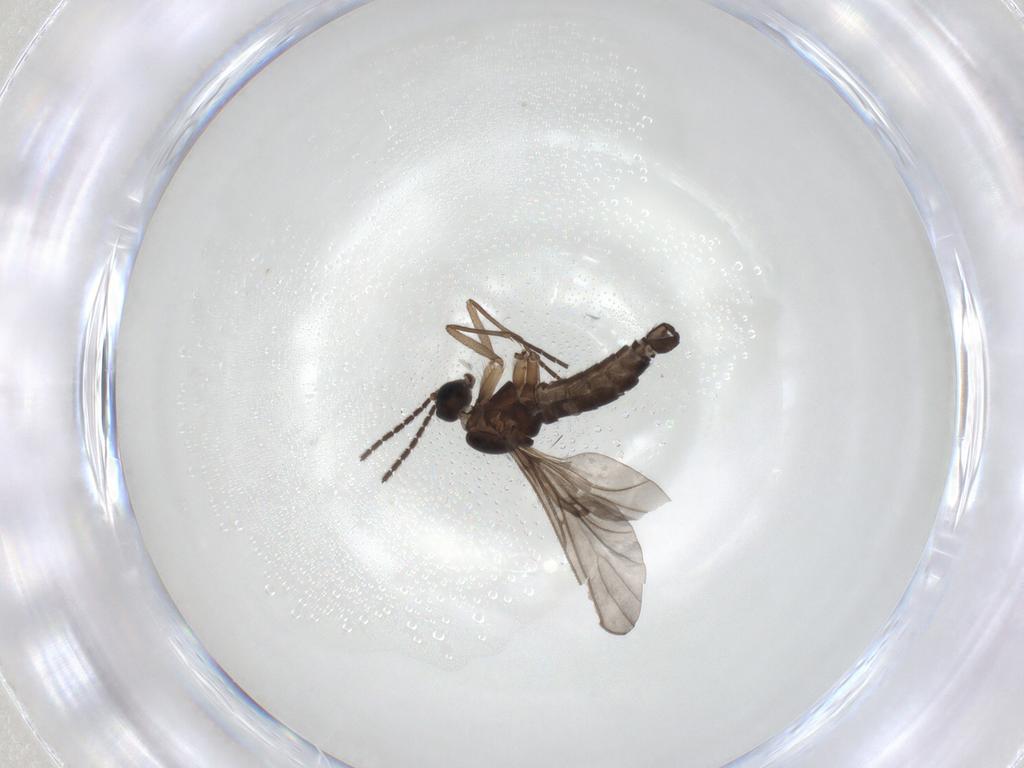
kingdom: Animalia
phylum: Arthropoda
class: Insecta
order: Diptera
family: Sciaridae
